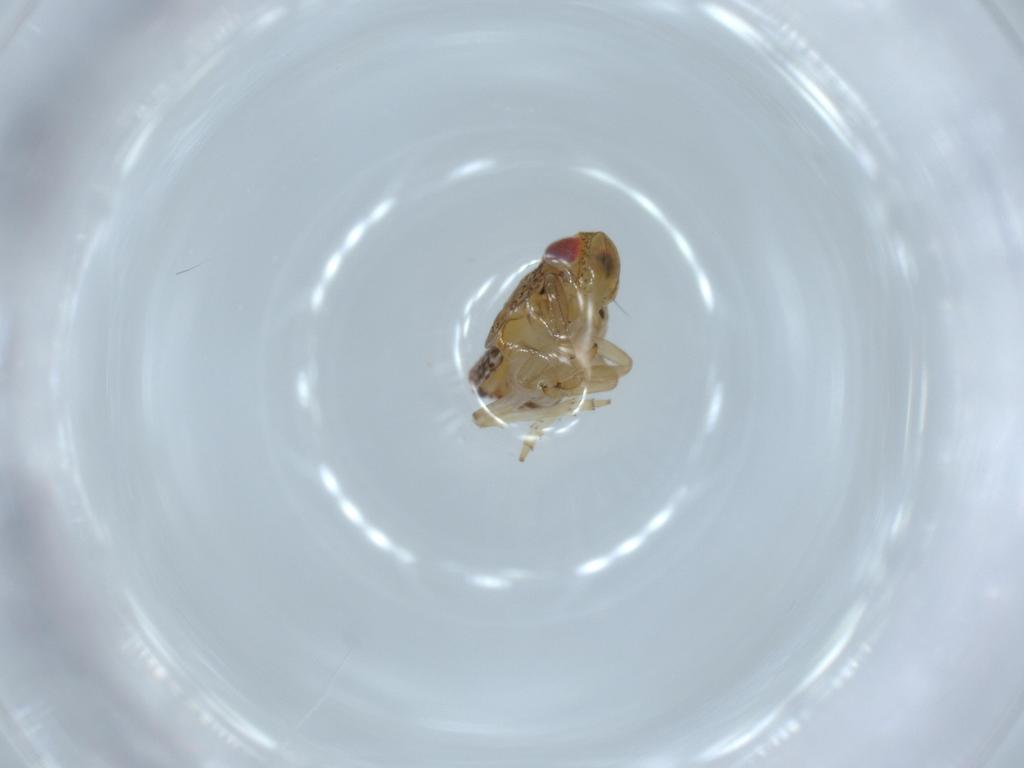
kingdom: Animalia
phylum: Arthropoda
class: Insecta
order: Hemiptera
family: Issidae
